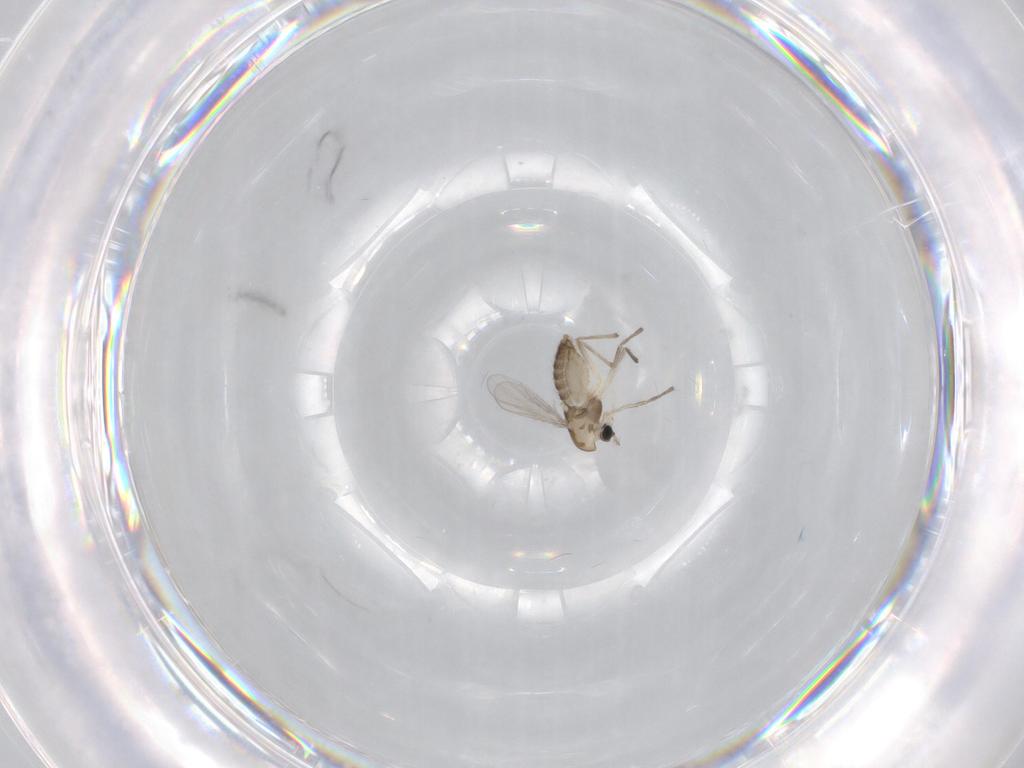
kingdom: Animalia
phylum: Arthropoda
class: Insecta
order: Diptera
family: Chironomidae
